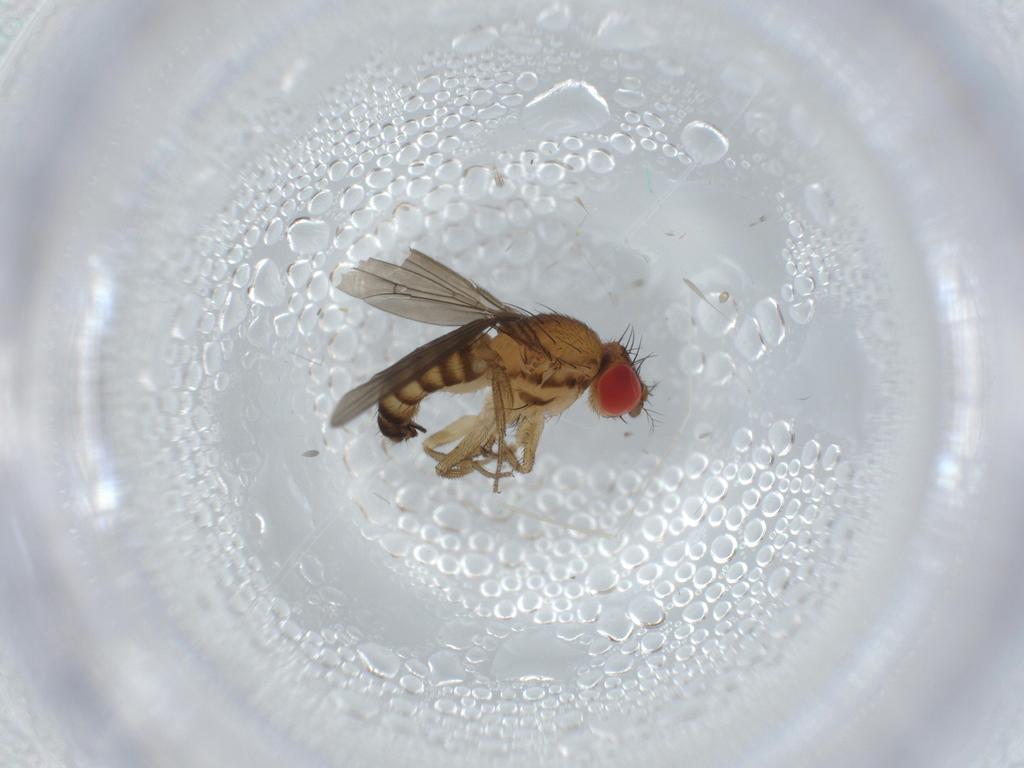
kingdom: Animalia
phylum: Arthropoda
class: Insecta
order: Diptera
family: Drosophilidae
